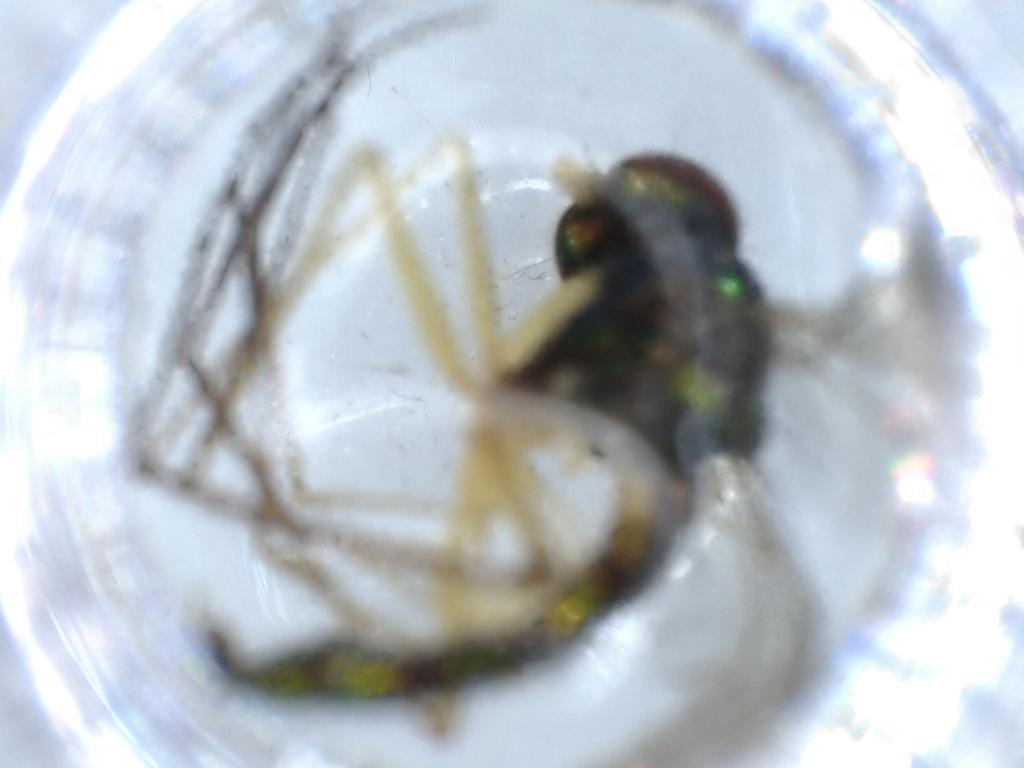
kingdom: Animalia
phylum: Arthropoda
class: Insecta
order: Diptera
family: Dolichopodidae
